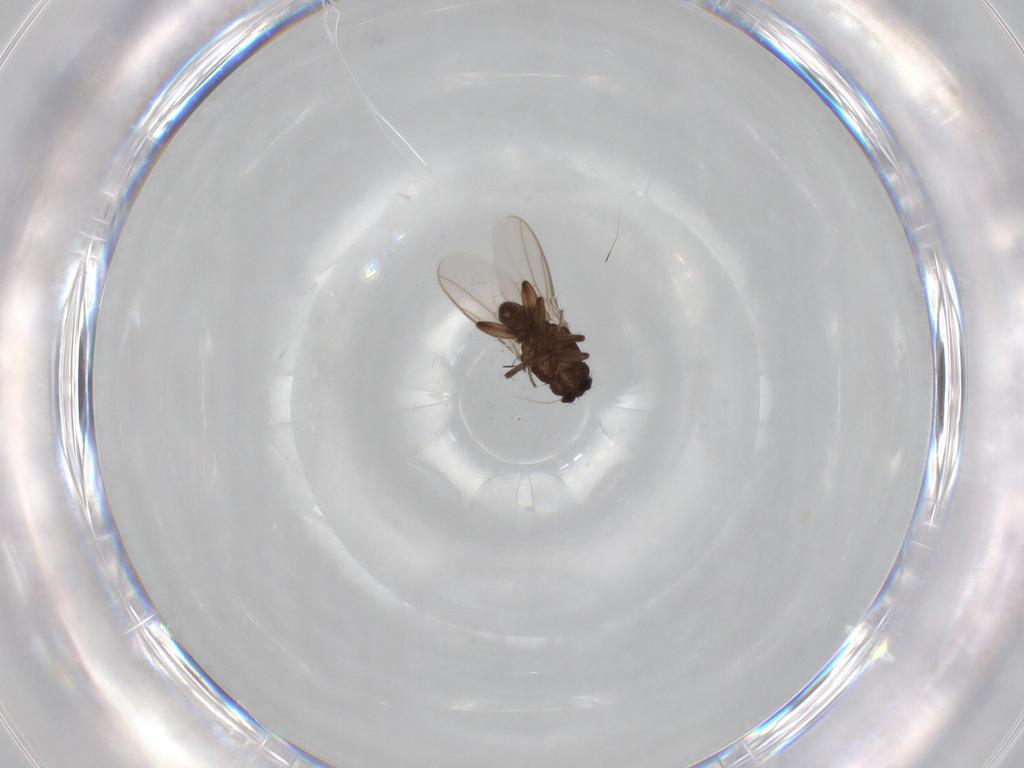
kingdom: Animalia
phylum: Arthropoda
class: Insecta
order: Diptera
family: Sphaeroceridae
